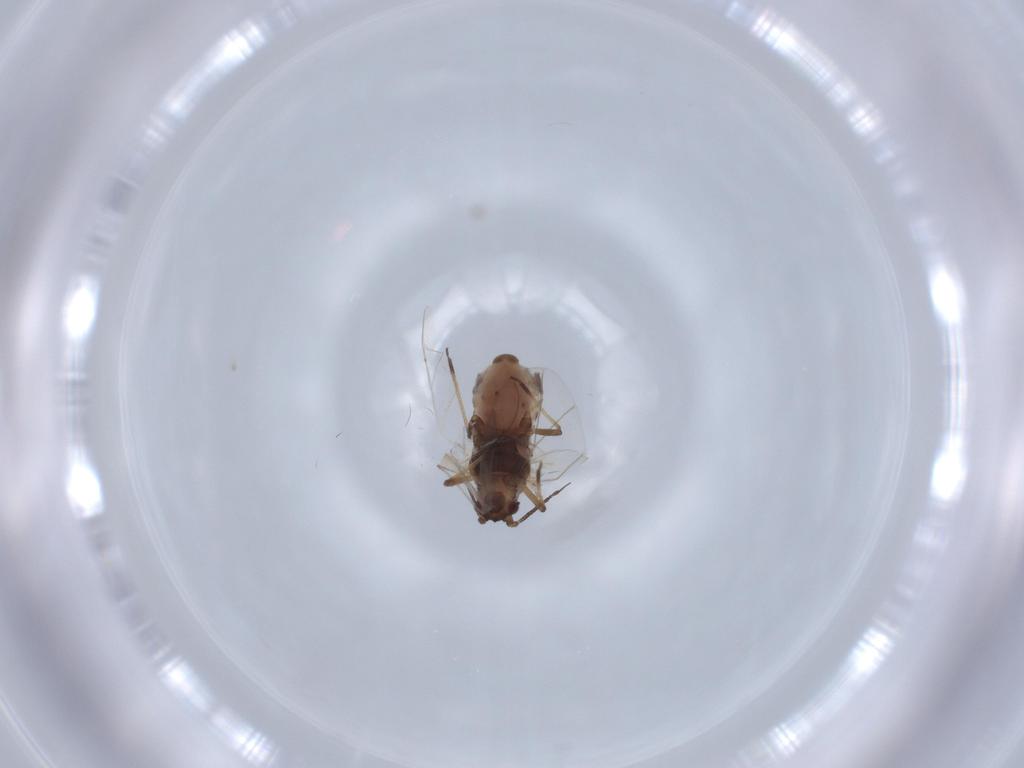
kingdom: Animalia
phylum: Arthropoda
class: Insecta
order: Hemiptera
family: Aphididae
